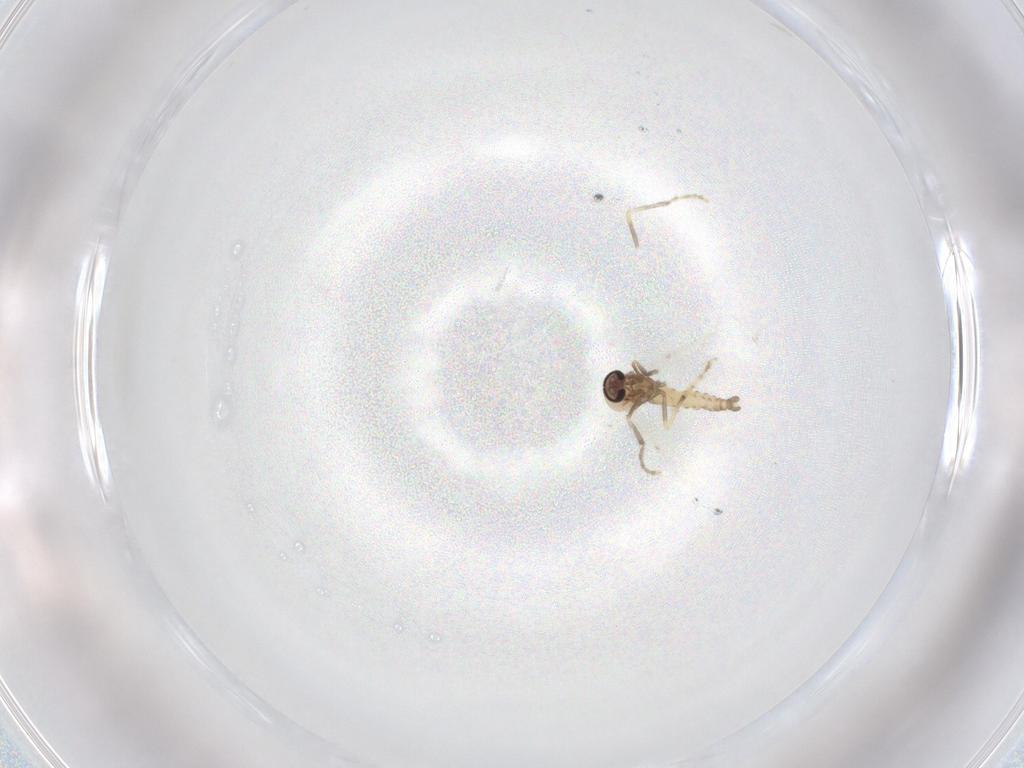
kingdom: Animalia
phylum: Arthropoda
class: Insecta
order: Diptera
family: Ceratopogonidae
